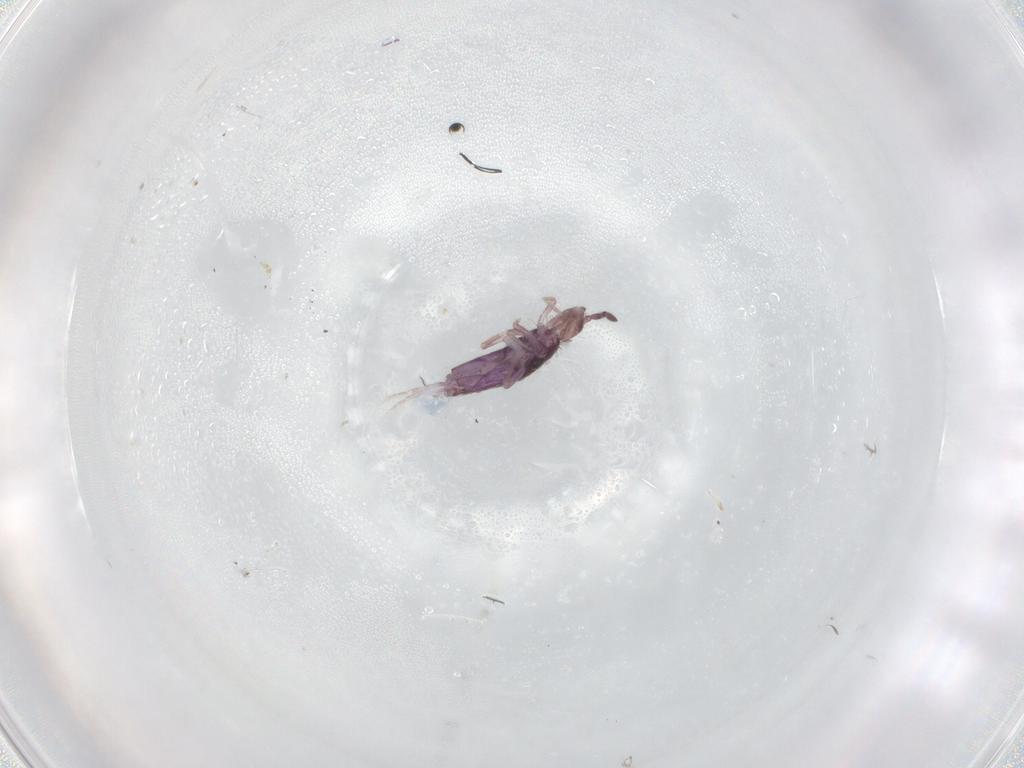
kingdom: Animalia
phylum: Arthropoda
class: Collembola
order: Entomobryomorpha
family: Entomobryidae
